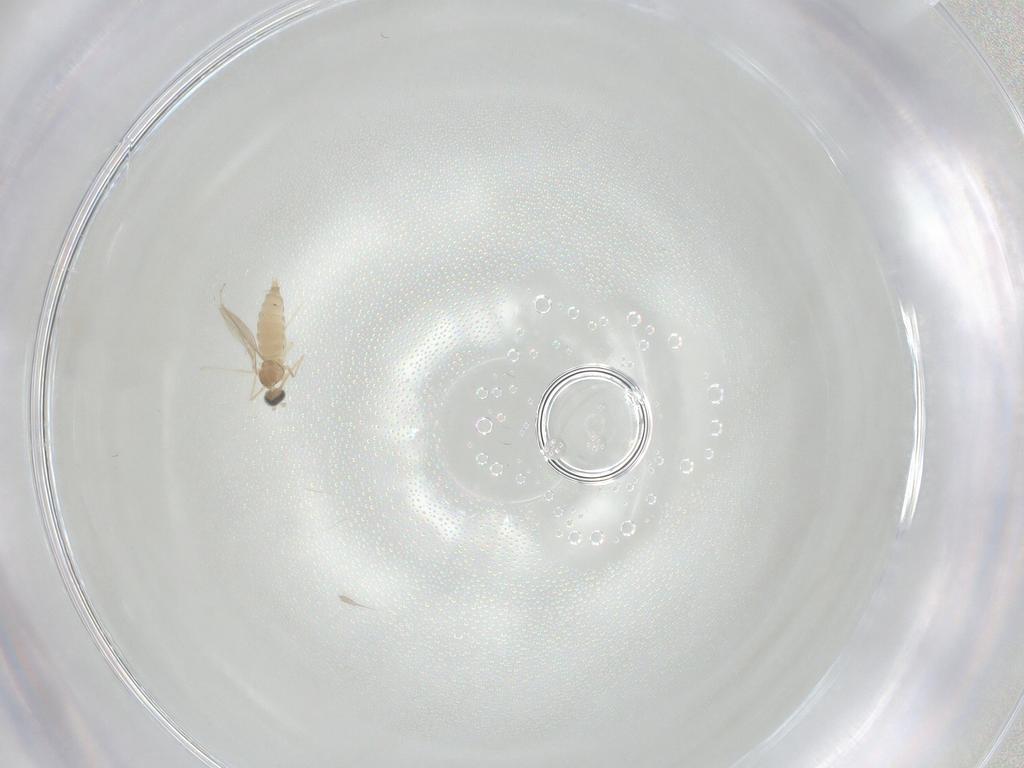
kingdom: Animalia
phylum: Arthropoda
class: Insecta
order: Diptera
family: Cecidomyiidae
